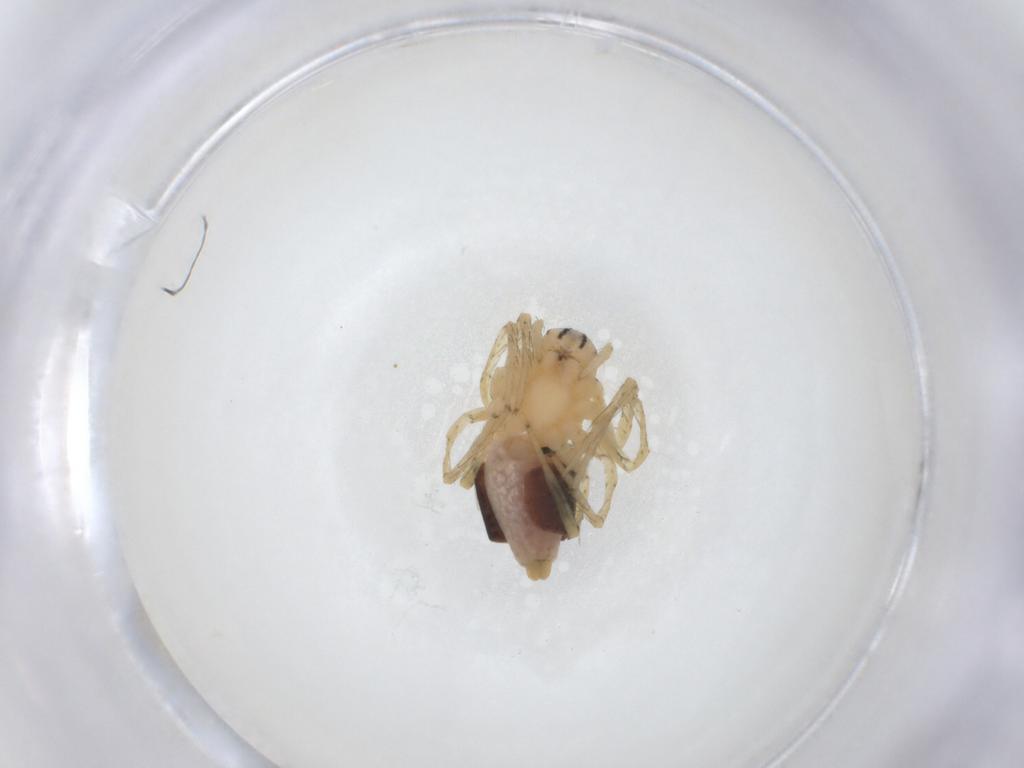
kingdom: Animalia
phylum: Arthropoda
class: Arachnida
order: Araneae
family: Oxyopidae
